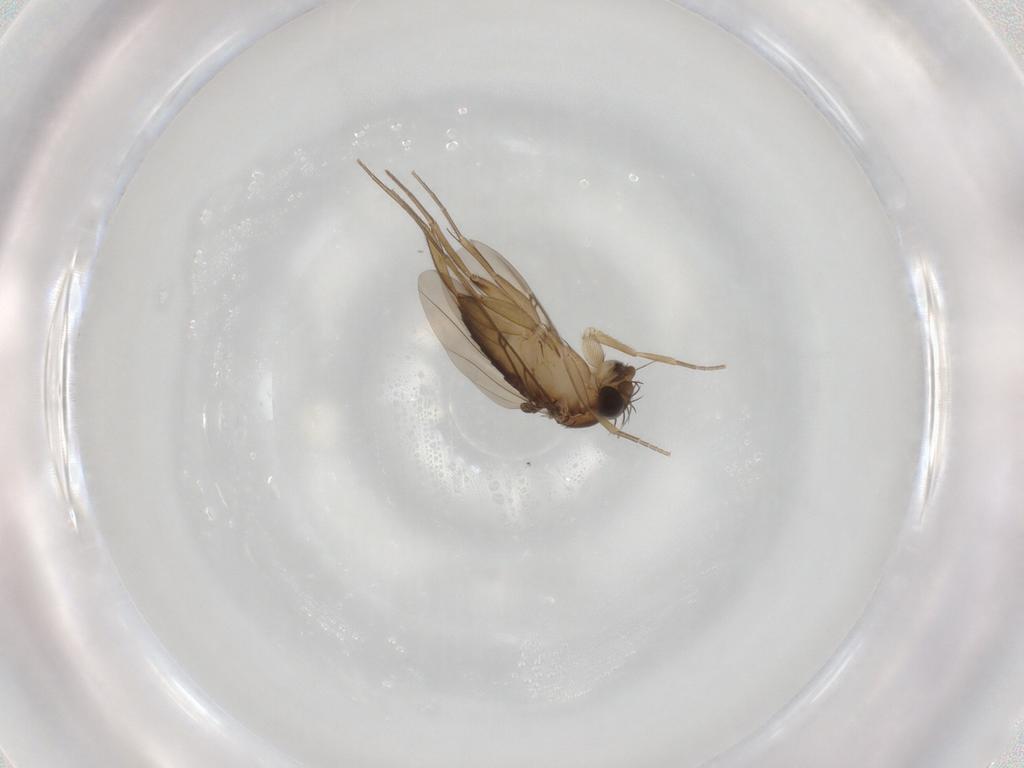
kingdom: Animalia
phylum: Arthropoda
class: Insecta
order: Diptera
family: Phoridae
